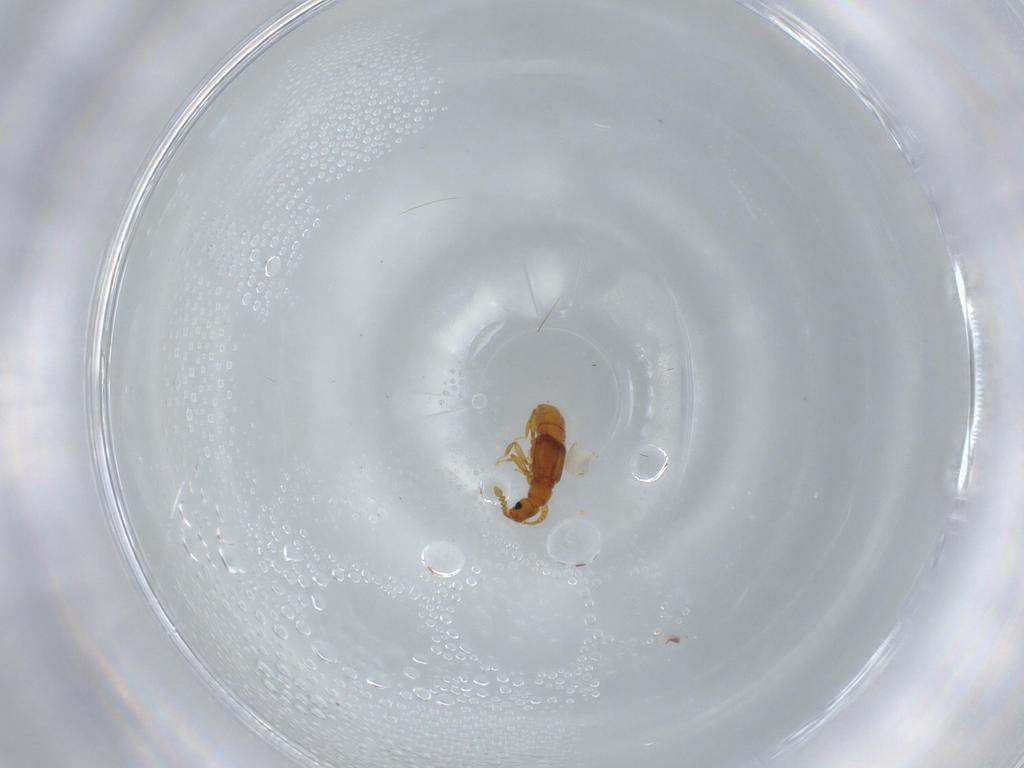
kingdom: Animalia
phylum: Arthropoda
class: Insecta
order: Coleoptera
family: Staphylinidae
